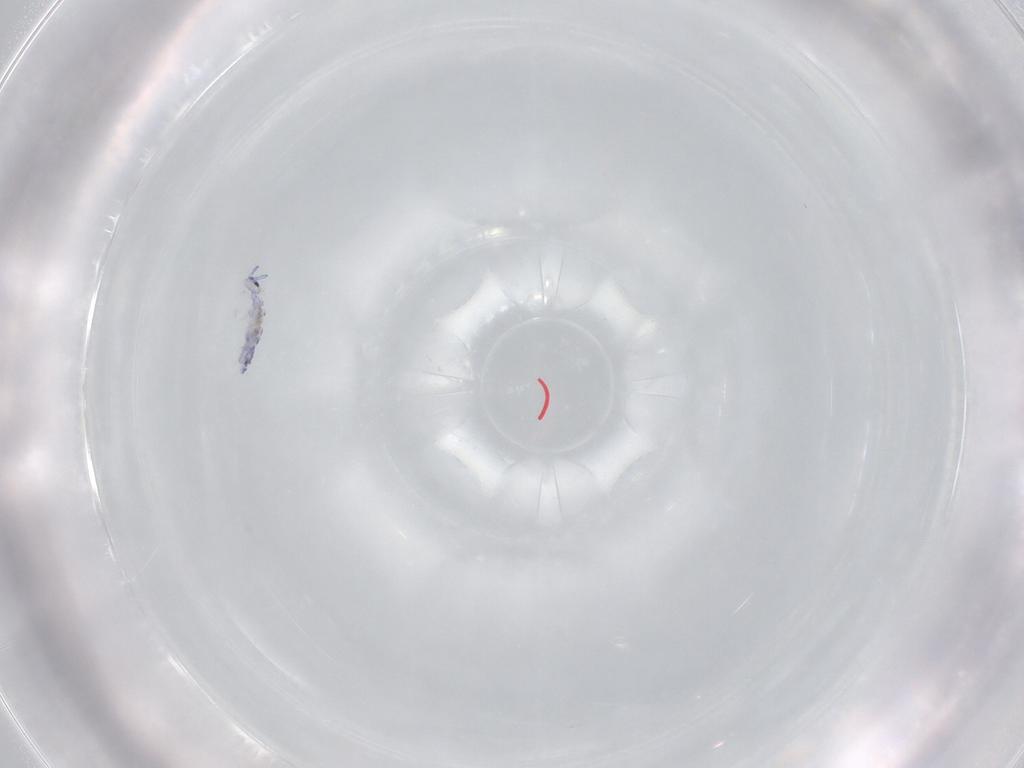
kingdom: Animalia
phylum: Arthropoda
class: Collembola
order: Entomobryomorpha
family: Entomobryidae
